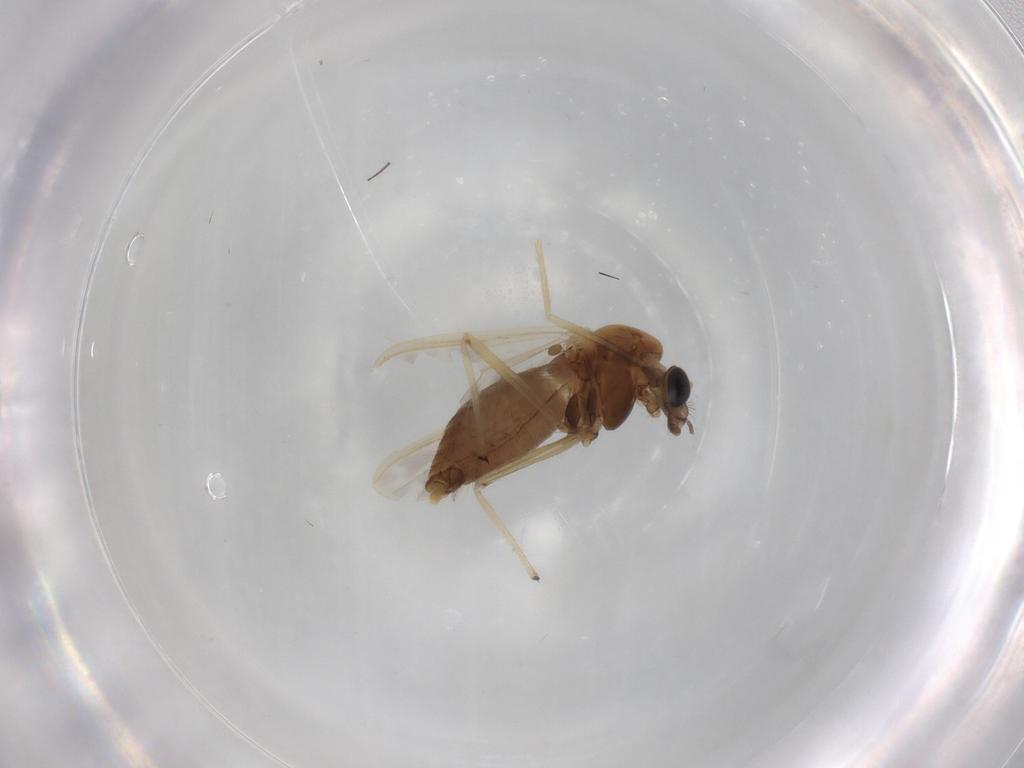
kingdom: Animalia
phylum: Arthropoda
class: Insecta
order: Diptera
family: Chironomidae
